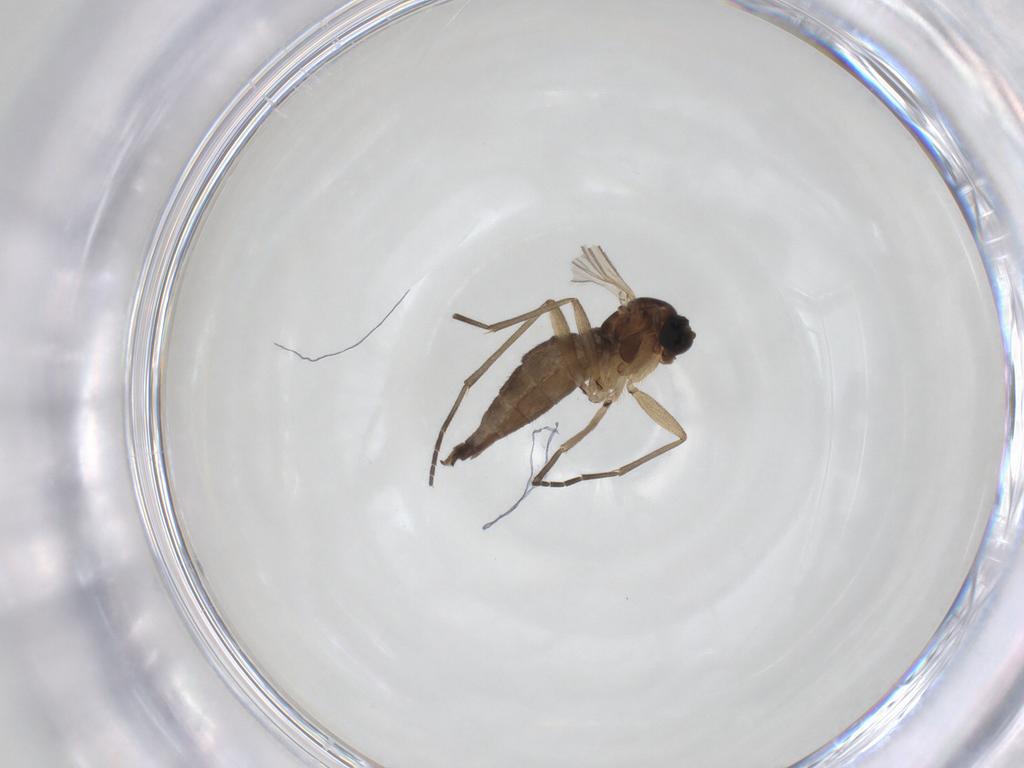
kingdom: Animalia
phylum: Arthropoda
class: Insecta
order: Diptera
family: Sciaridae
